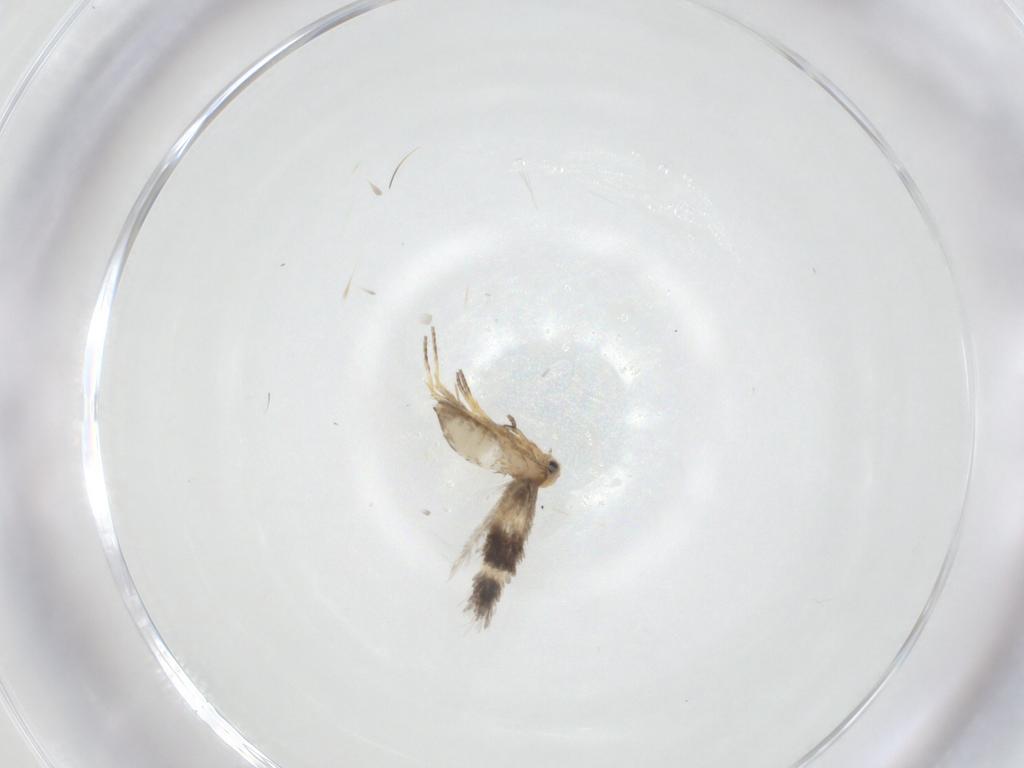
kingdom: Animalia
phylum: Arthropoda
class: Insecta
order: Lepidoptera
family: Nepticulidae
